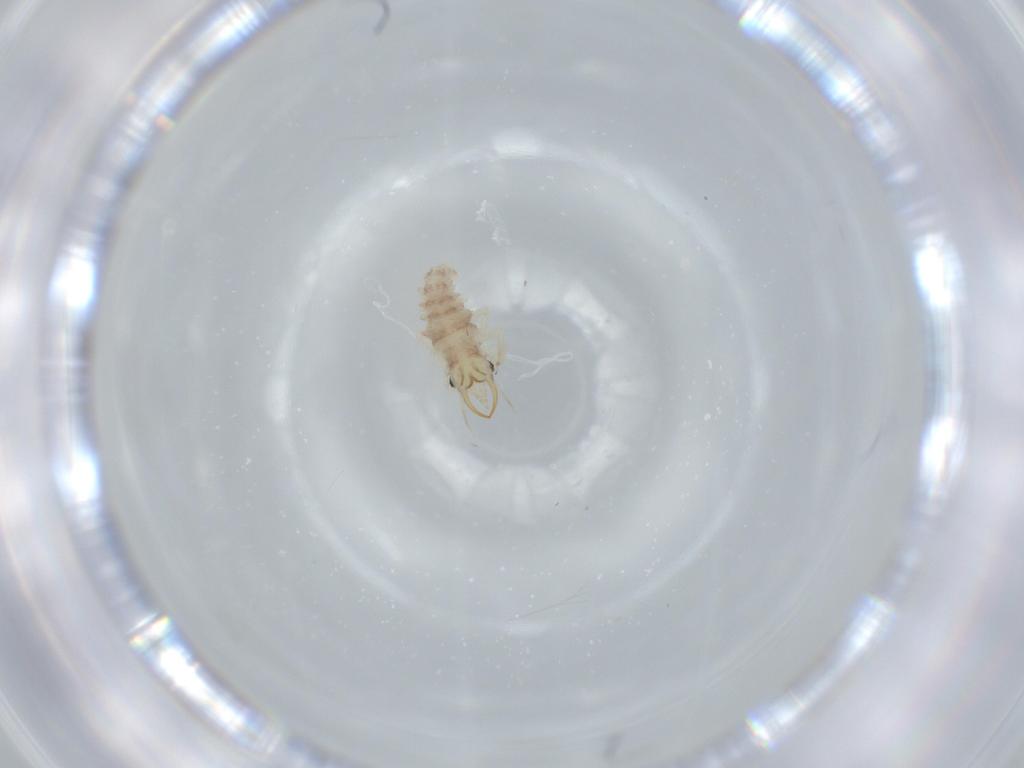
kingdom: Animalia
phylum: Arthropoda
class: Insecta
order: Neuroptera
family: Chrysopidae
